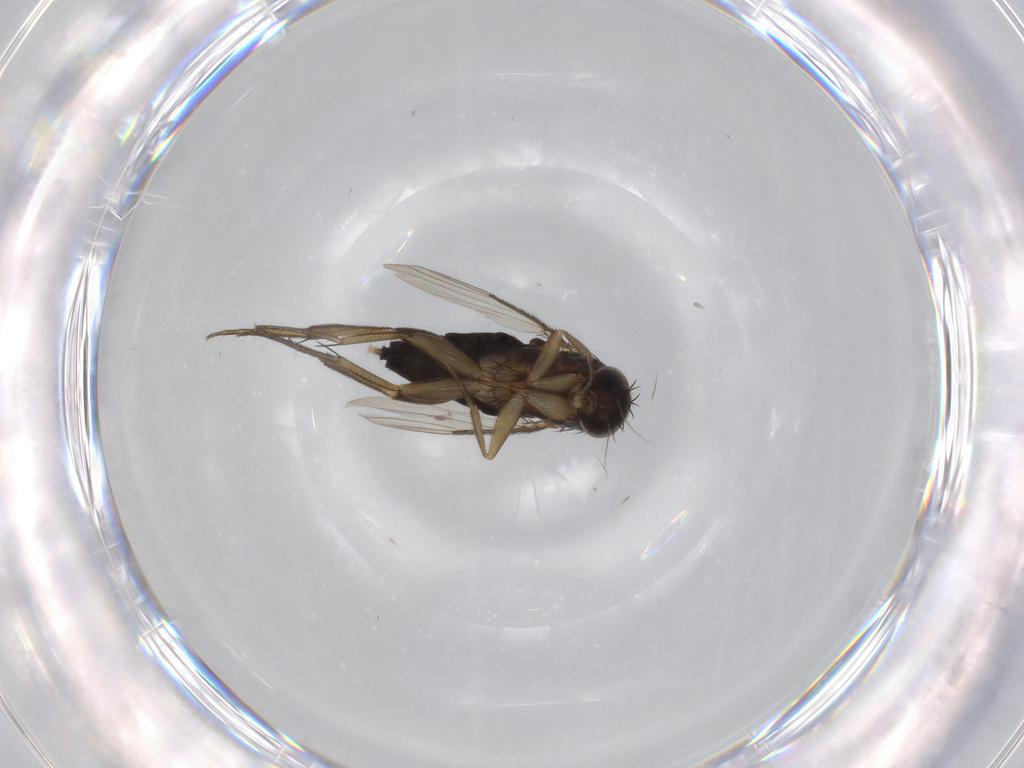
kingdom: Animalia
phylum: Arthropoda
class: Insecta
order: Diptera
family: Phoridae
